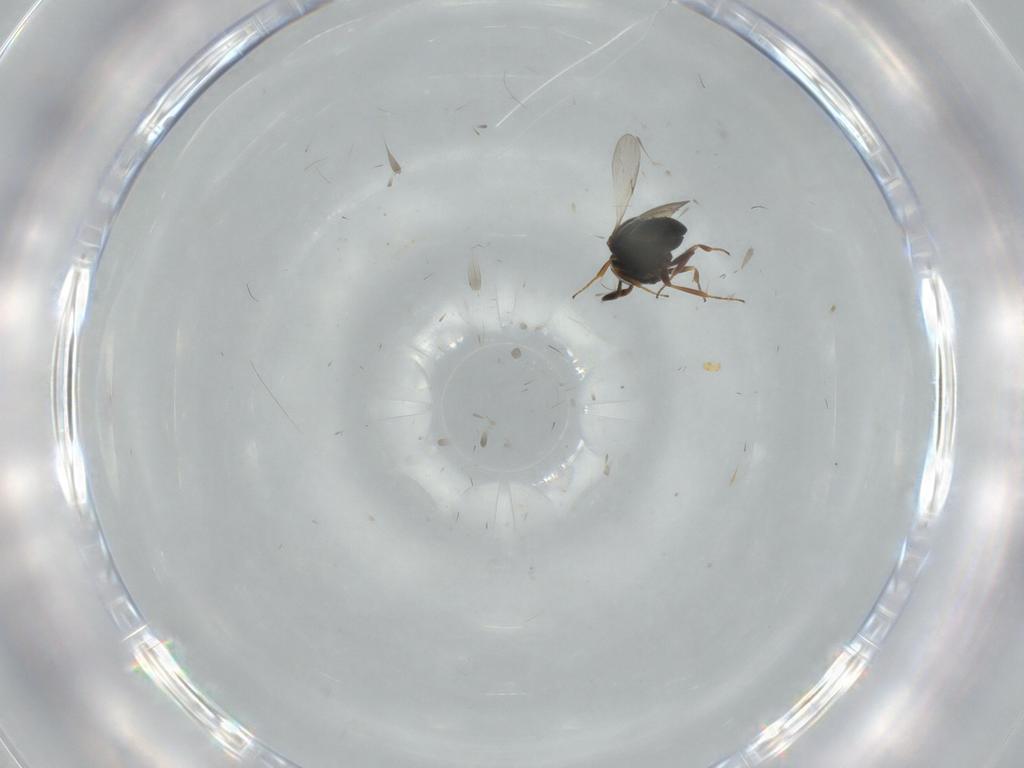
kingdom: Animalia
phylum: Arthropoda
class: Insecta
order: Hymenoptera
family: Scelionidae
